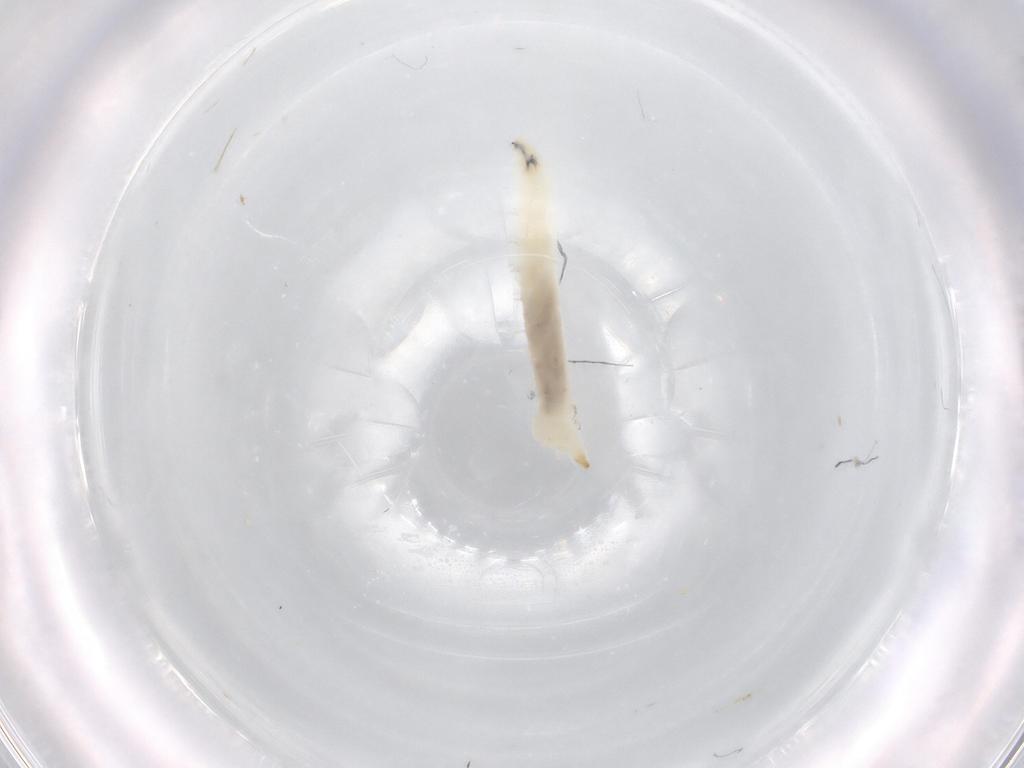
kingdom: Animalia
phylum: Arthropoda
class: Insecta
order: Diptera
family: Drosophilidae
